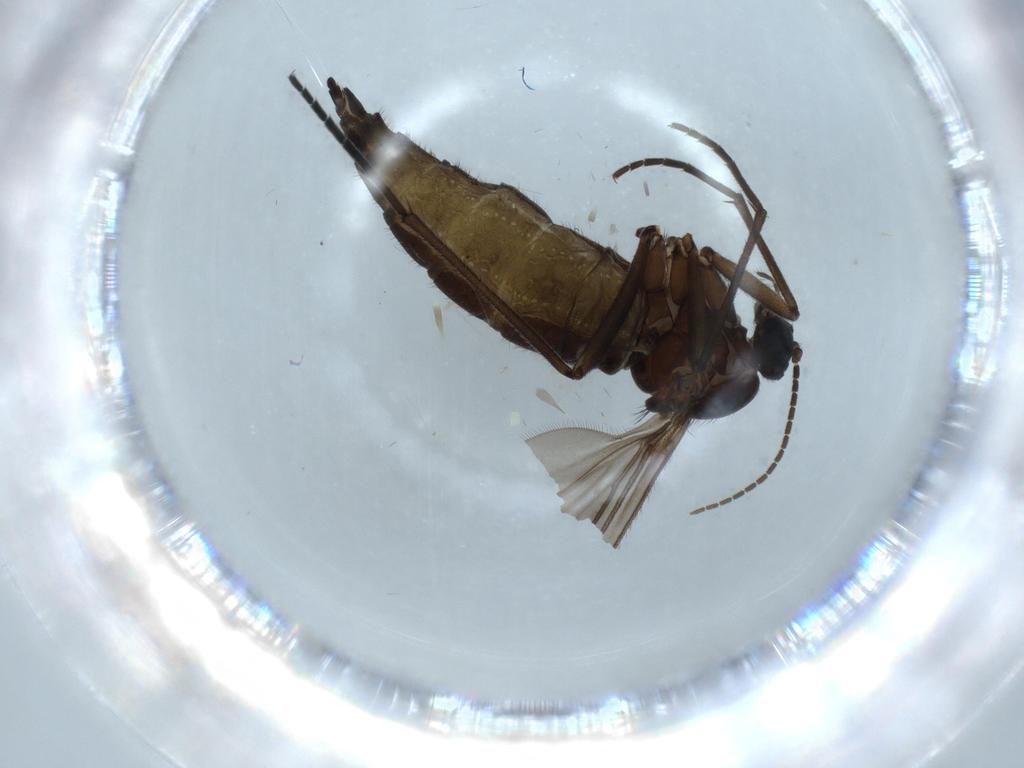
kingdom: Animalia
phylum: Arthropoda
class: Insecta
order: Diptera
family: Sciaridae
